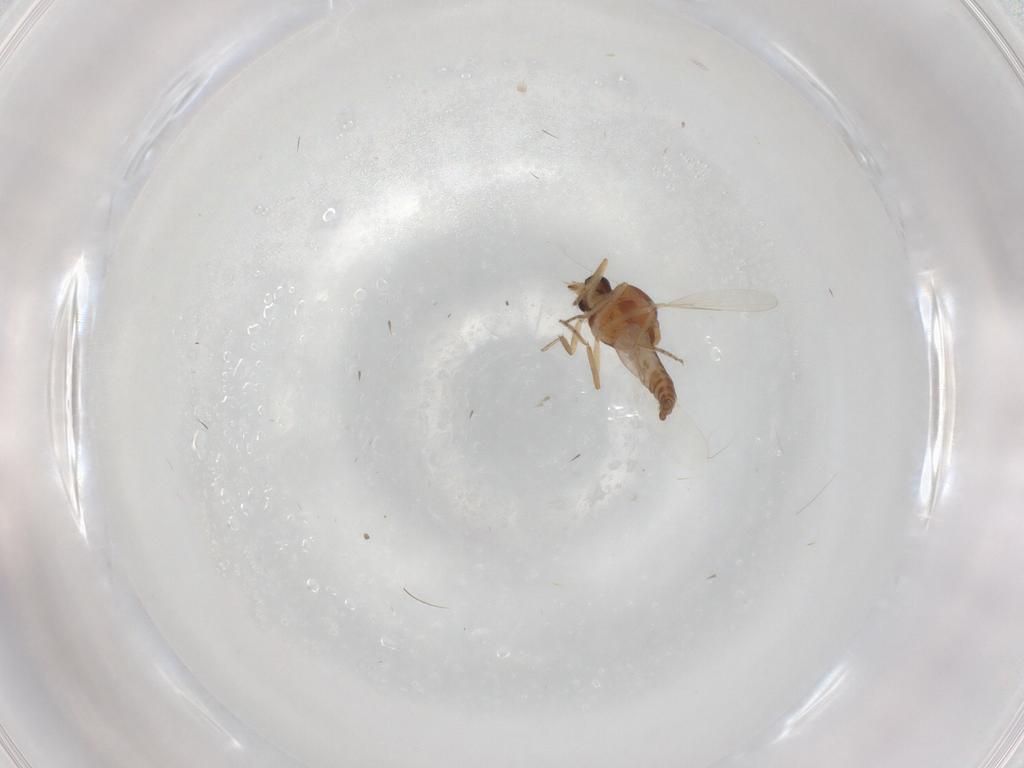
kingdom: Animalia
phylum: Arthropoda
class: Insecta
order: Diptera
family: Ceratopogonidae
